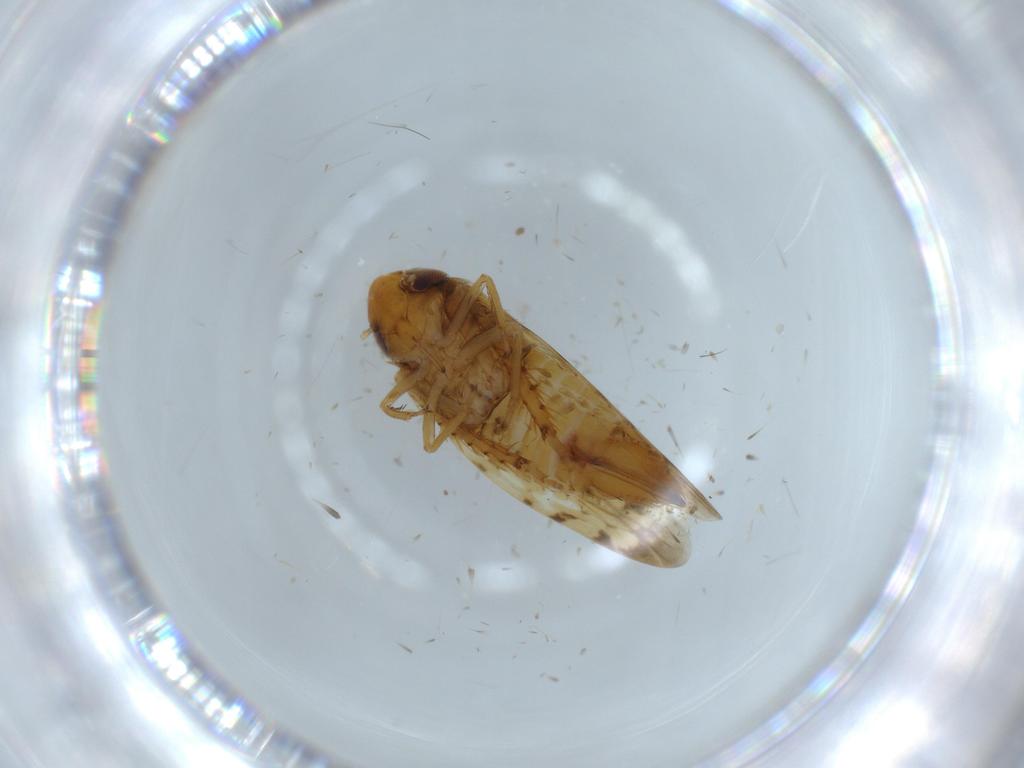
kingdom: Animalia
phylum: Arthropoda
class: Insecta
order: Hemiptera
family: Cicadellidae
